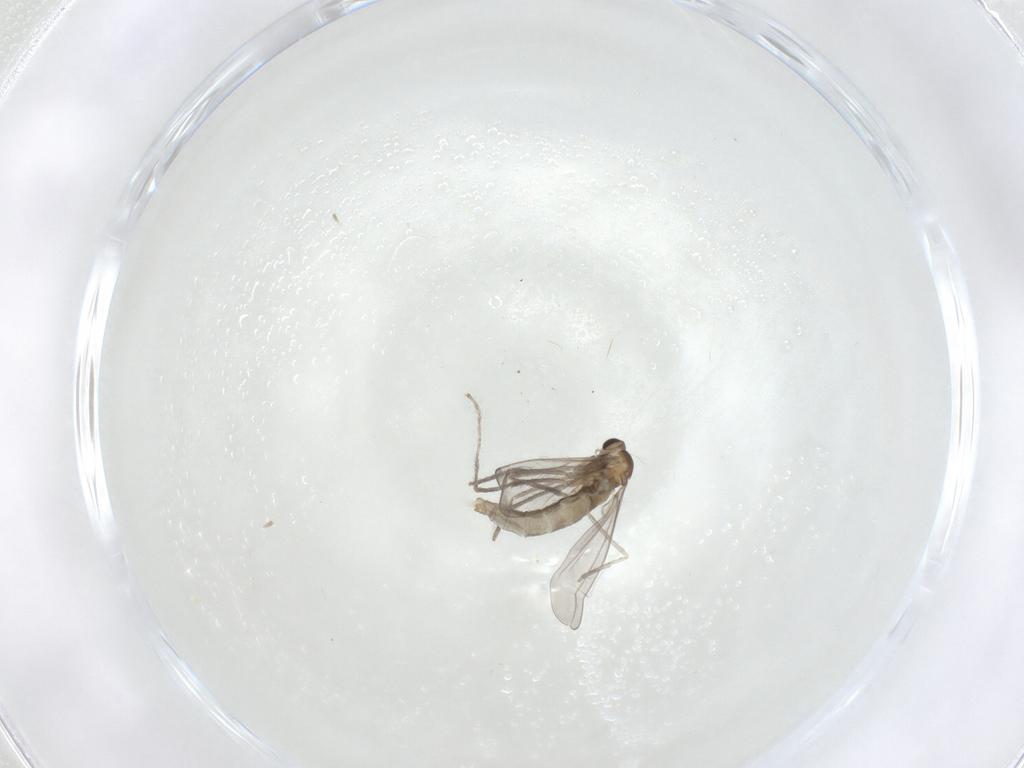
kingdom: Animalia
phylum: Arthropoda
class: Insecta
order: Diptera
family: Cecidomyiidae
